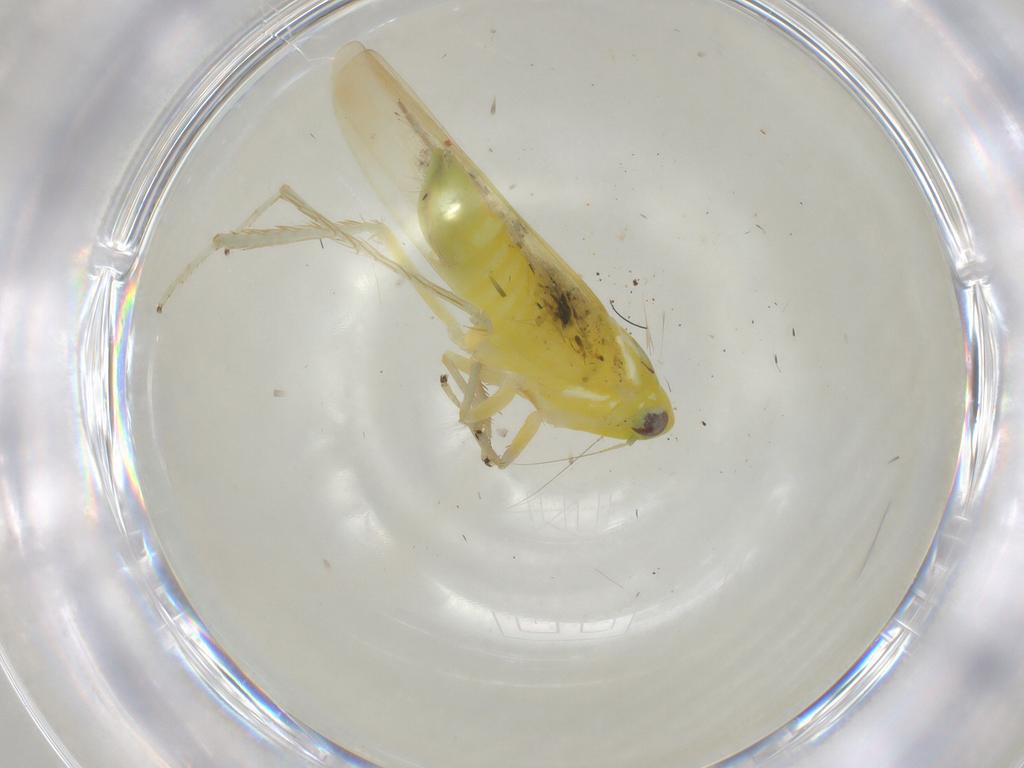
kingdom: Animalia
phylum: Arthropoda
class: Insecta
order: Hemiptera
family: Cicadellidae
